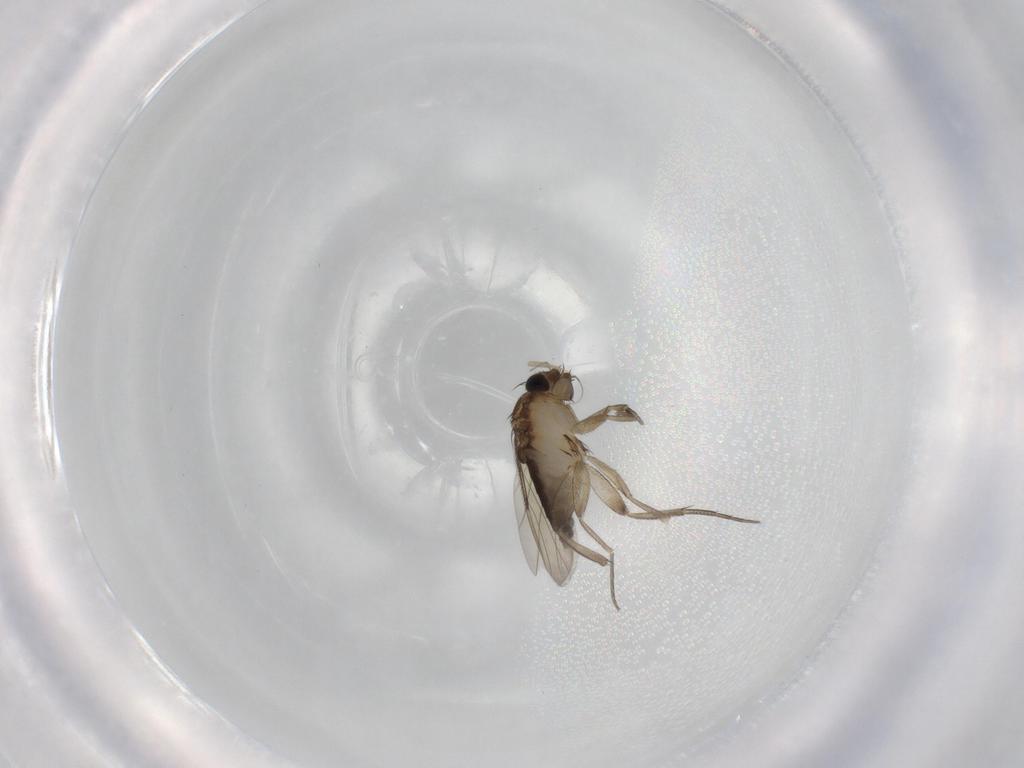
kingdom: Animalia
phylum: Arthropoda
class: Insecta
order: Diptera
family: Phoridae
